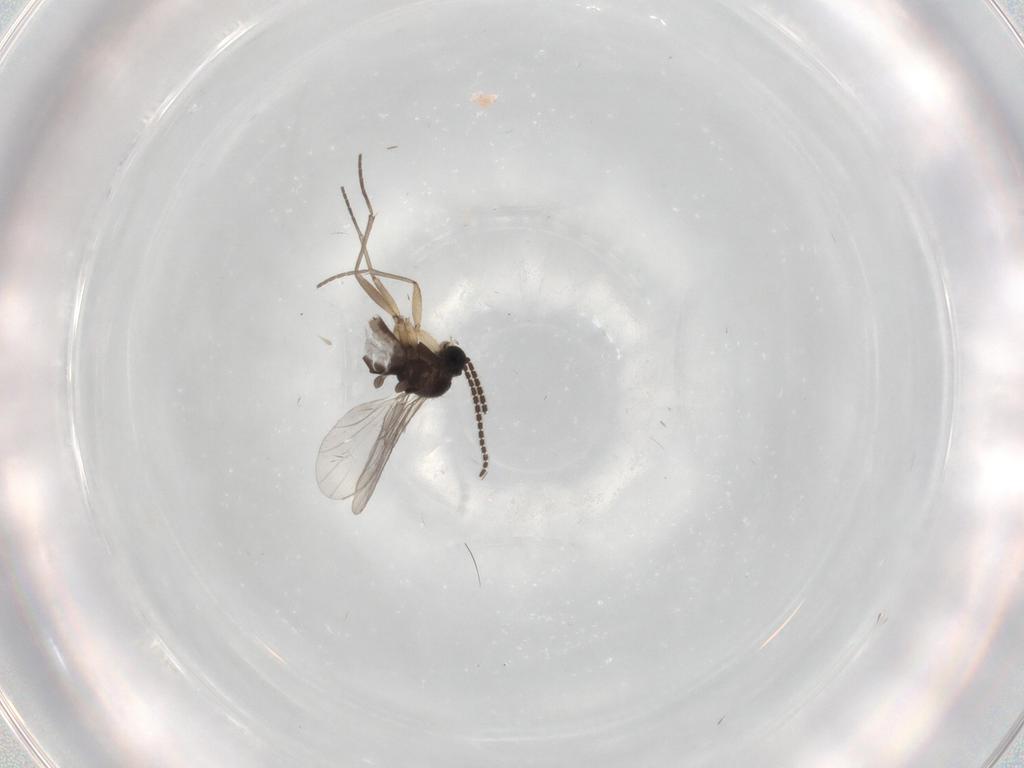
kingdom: Animalia
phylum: Arthropoda
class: Insecta
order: Diptera
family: Sciaridae
